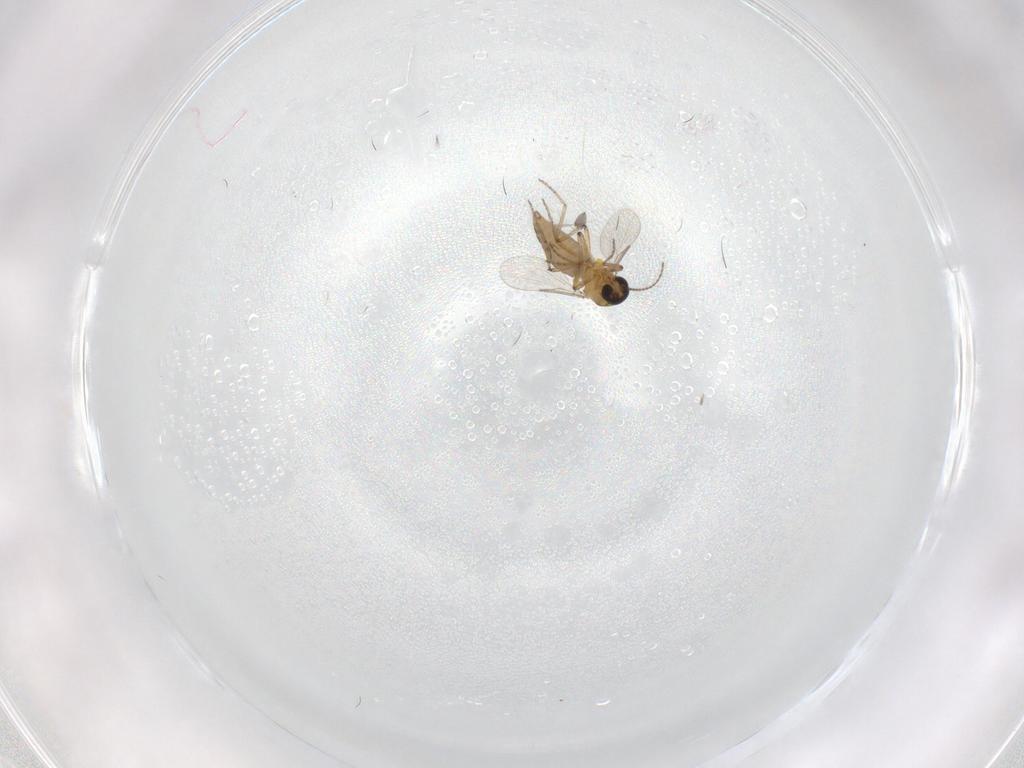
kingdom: Animalia
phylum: Arthropoda
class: Insecta
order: Diptera
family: Ceratopogonidae
